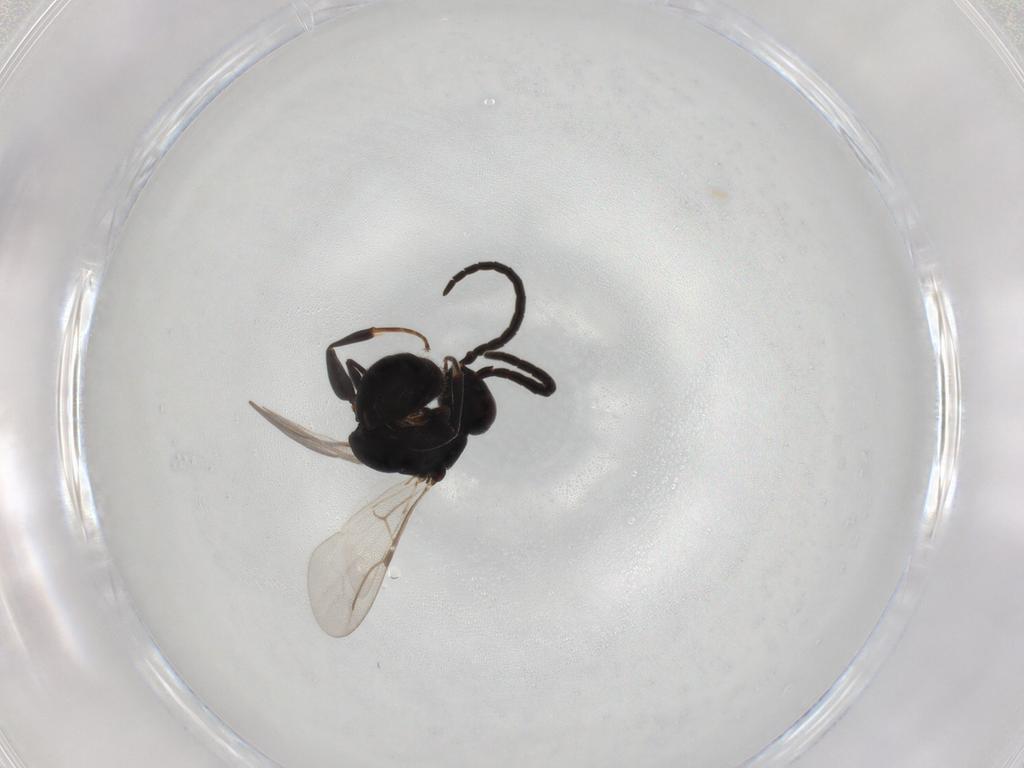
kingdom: Animalia
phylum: Arthropoda
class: Insecta
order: Hymenoptera
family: Bethylidae
